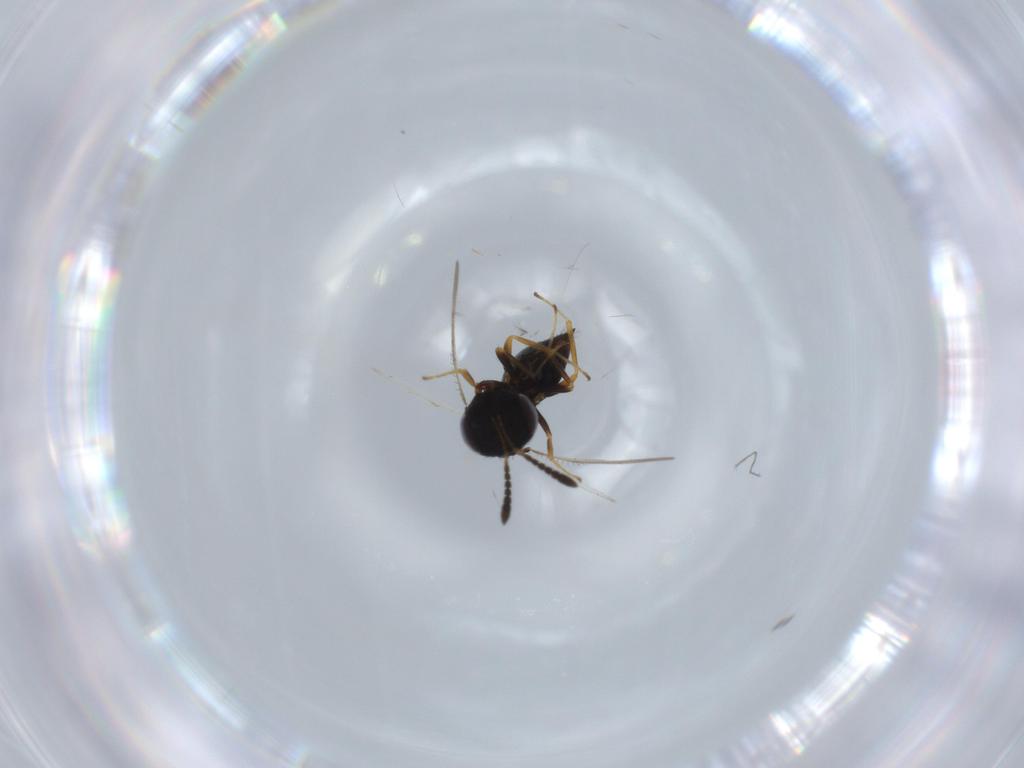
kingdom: Animalia
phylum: Arthropoda
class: Insecta
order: Hymenoptera
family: Pteromalidae
